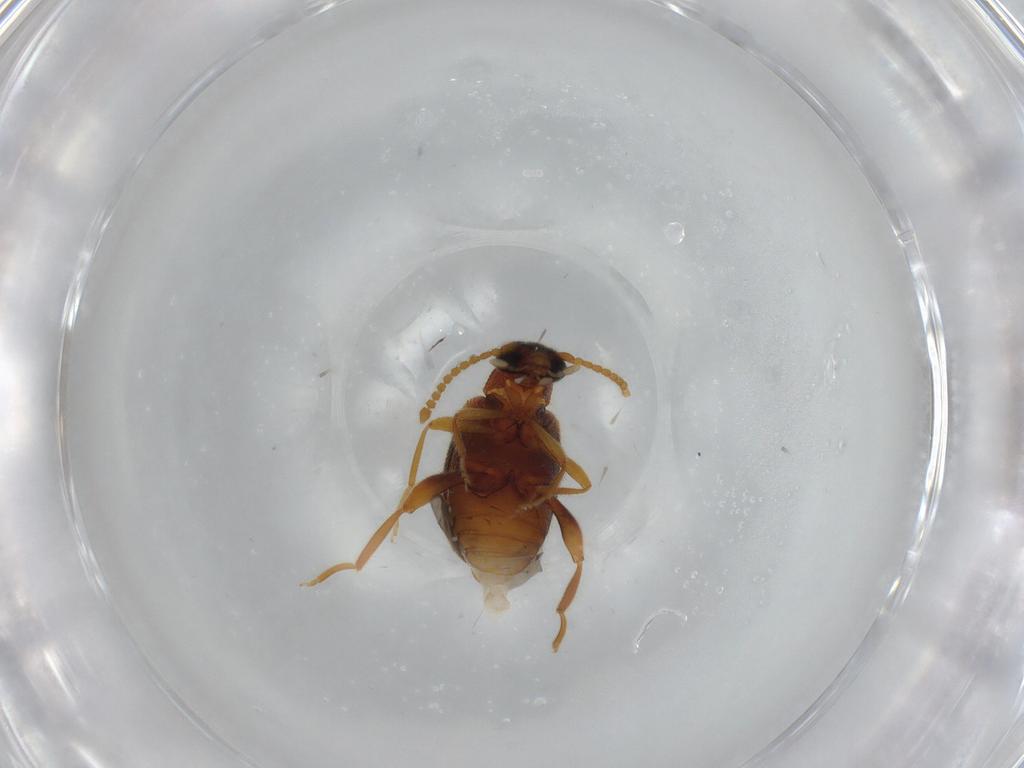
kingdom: Animalia
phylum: Arthropoda
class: Insecta
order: Coleoptera
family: Aderidae
